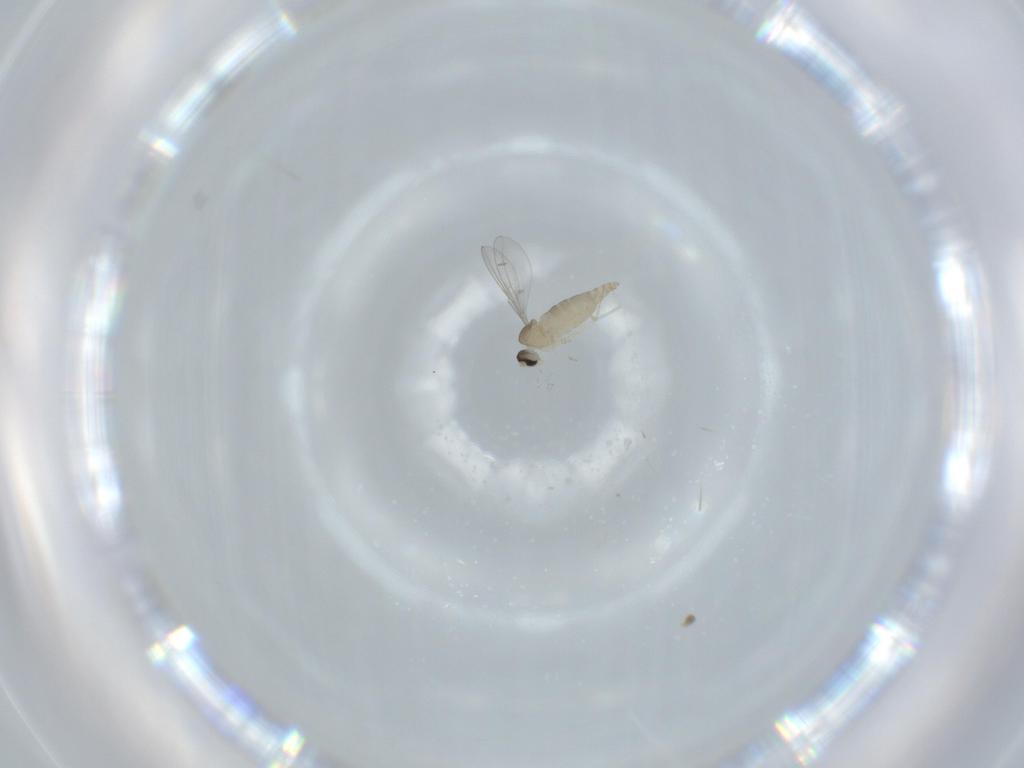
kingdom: Animalia
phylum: Arthropoda
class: Insecta
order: Diptera
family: Cecidomyiidae
